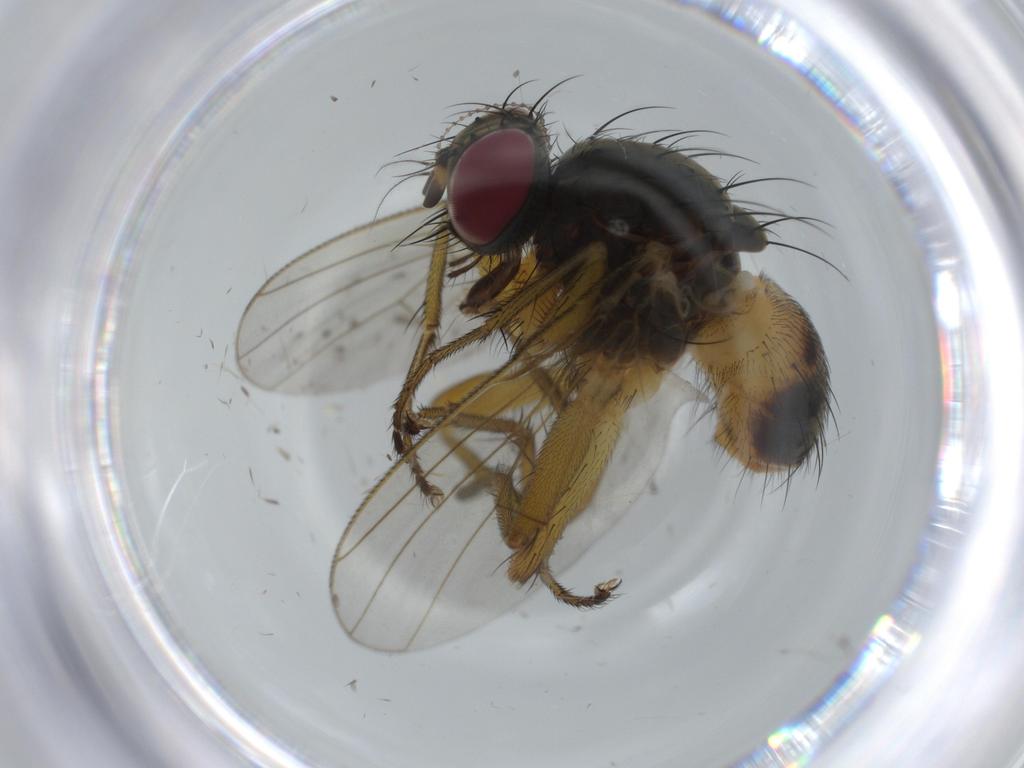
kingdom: Animalia
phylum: Arthropoda
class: Insecta
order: Diptera
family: Muscidae
